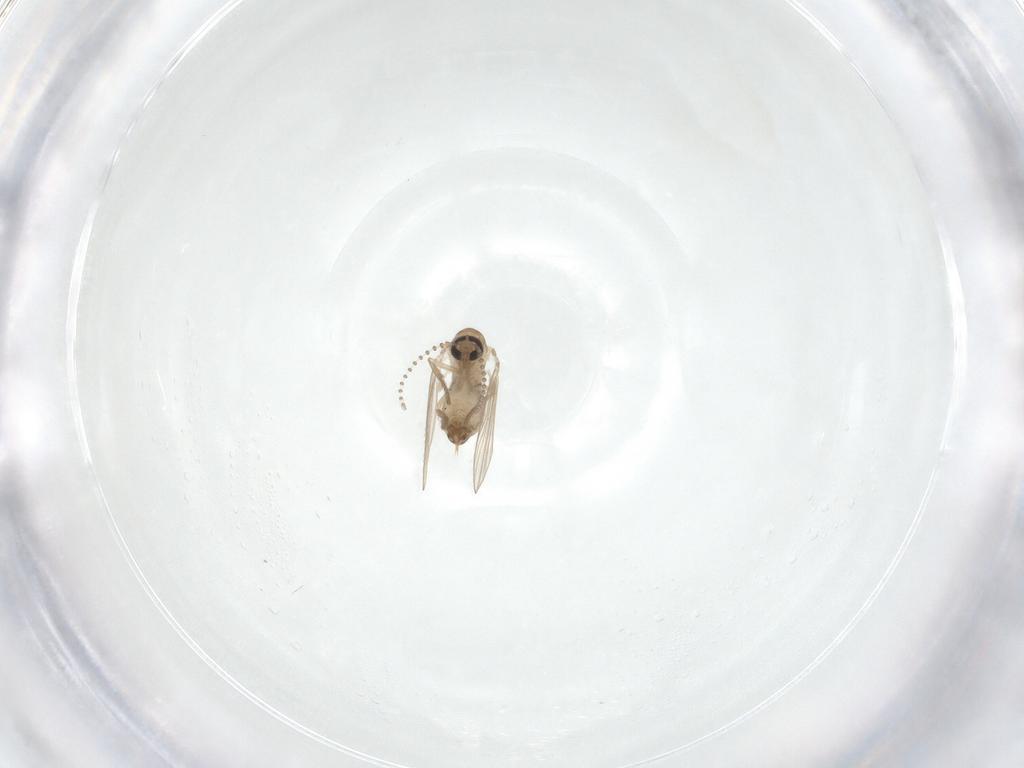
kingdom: Animalia
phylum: Arthropoda
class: Insecta
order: Diptera
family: Psychodidae
